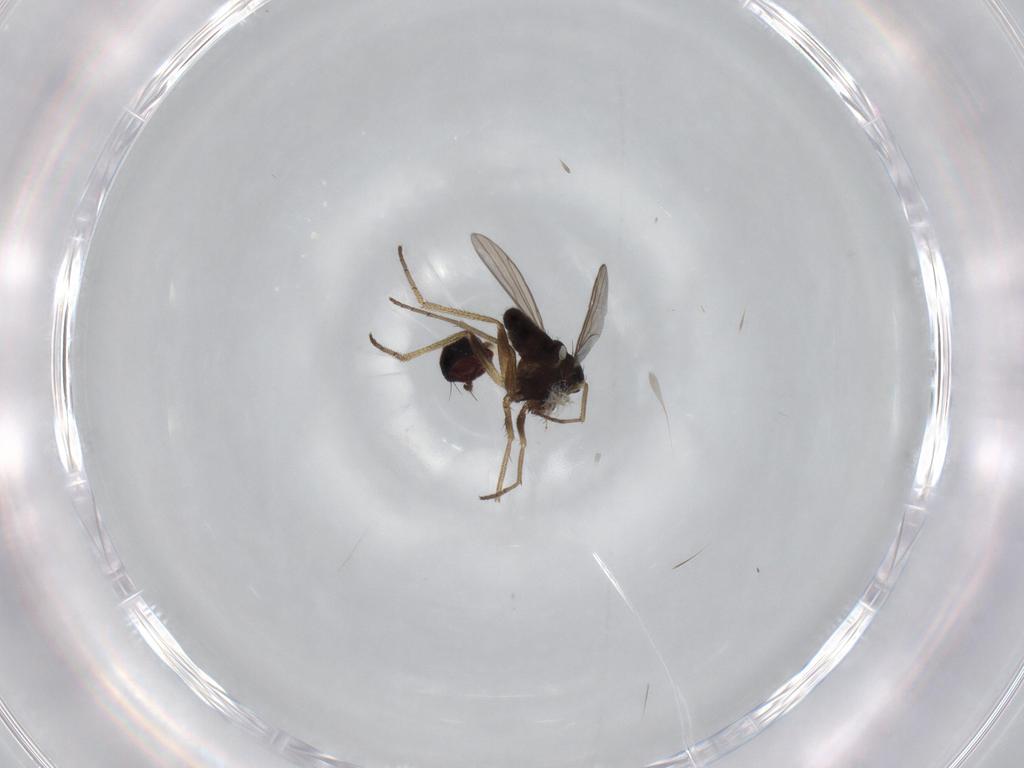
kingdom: Animalia
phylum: Arthropoda
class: Insecta
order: Diptera
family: Dolichopodidae
